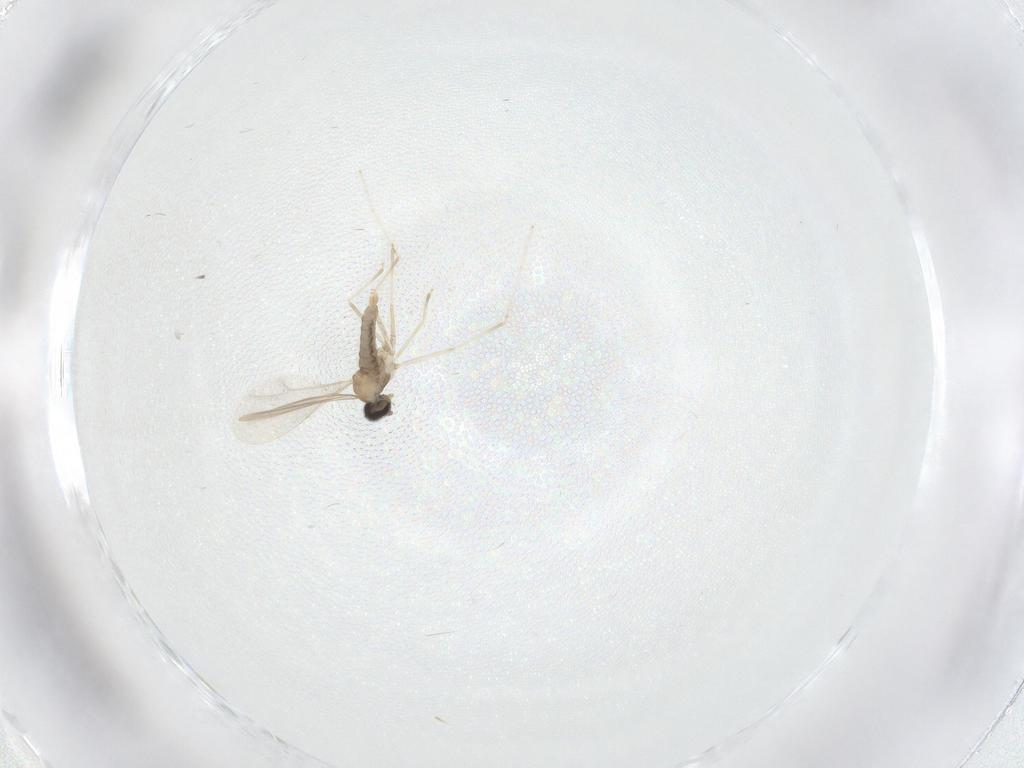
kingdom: Animalia
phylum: Arthropoda
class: Insecta
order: Diptera
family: Cecidomyiidae
